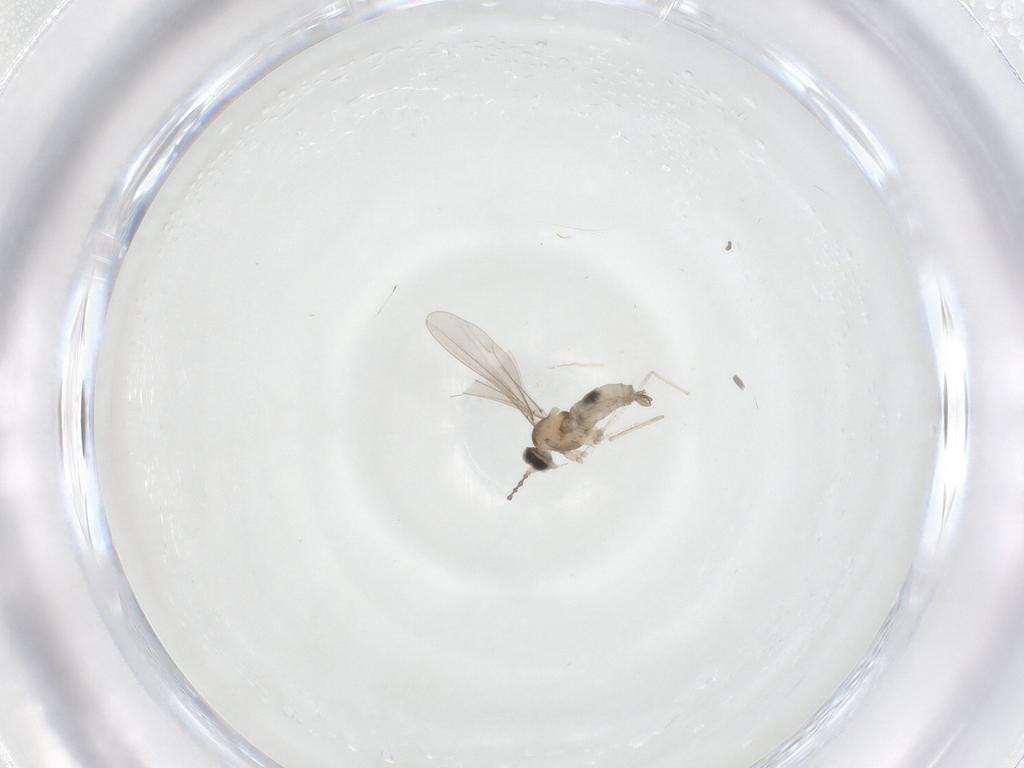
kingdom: Animalia
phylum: Arthropoda
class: Insecta
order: Diptera
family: Cecidomyiidae
